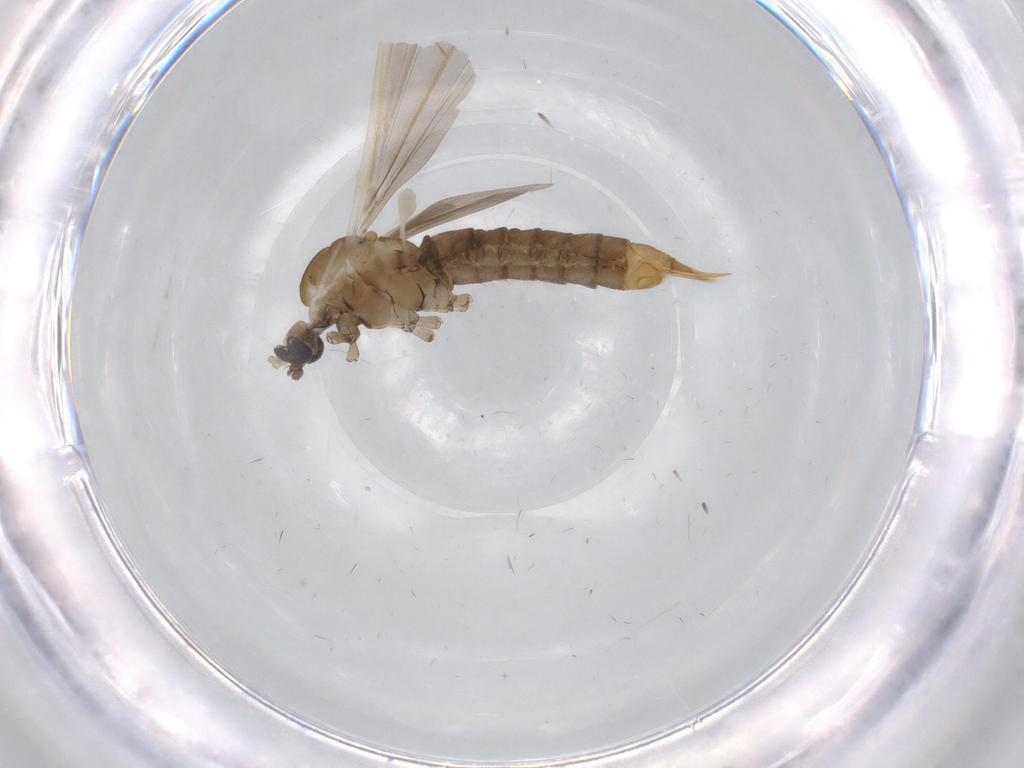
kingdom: Animalia
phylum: Arthropoda
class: Insecta
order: Diptera
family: Limoniidae
